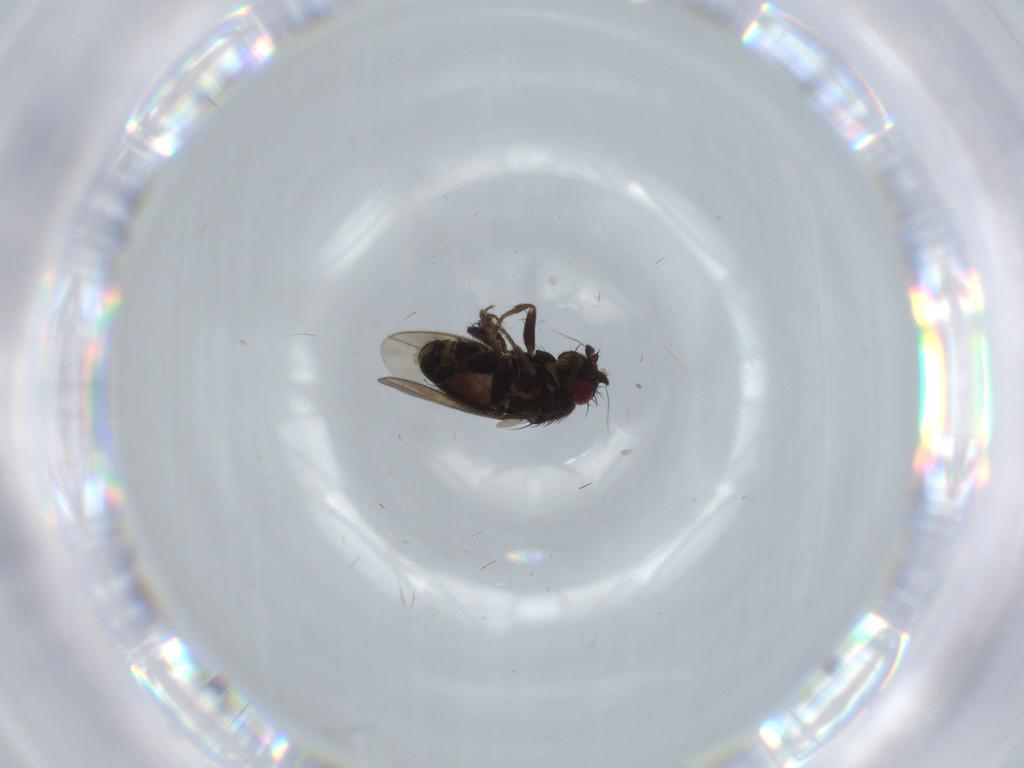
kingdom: Animalia
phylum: Arthropoda
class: Insecta
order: Diptera
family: Sphaeroceridae
